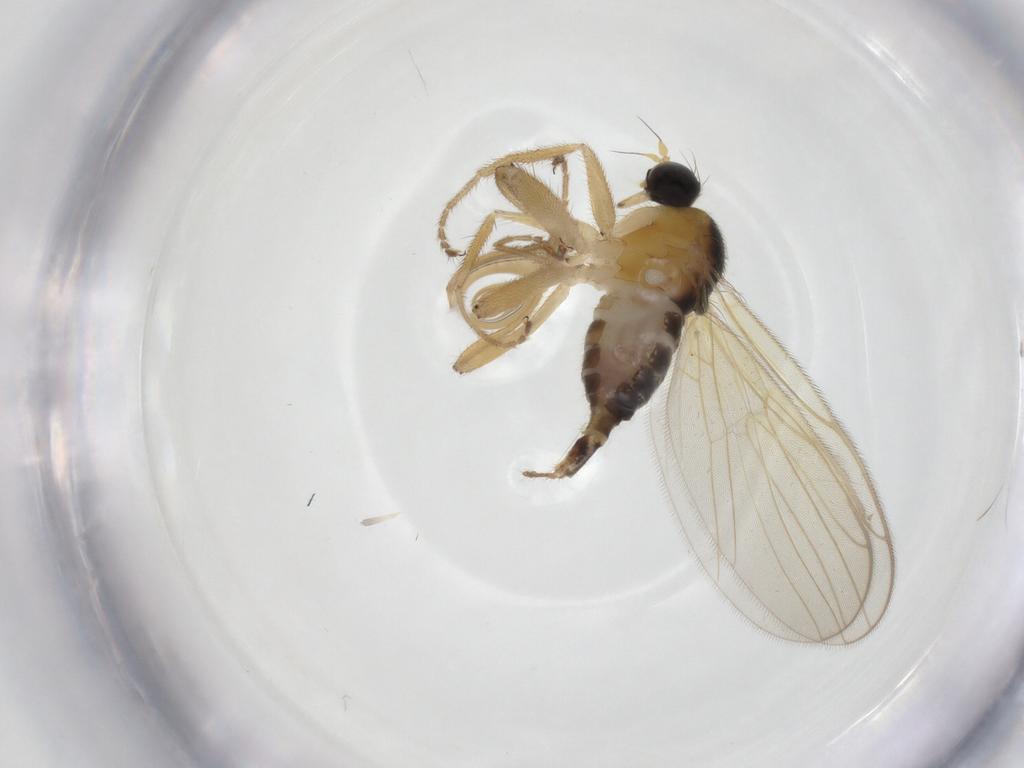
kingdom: Animalia
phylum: Arthropoda
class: Insecta
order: Diptera
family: Hybotidae
